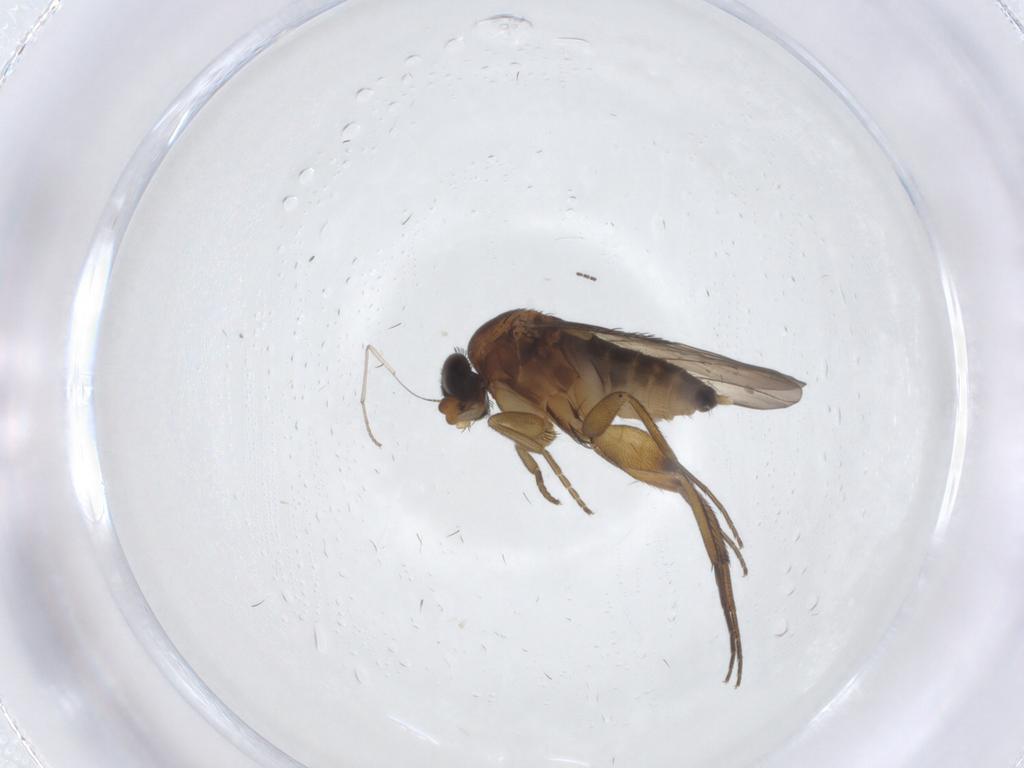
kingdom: Animalia
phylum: Arthropoda
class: Insecta
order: Diptera
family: Phoridae
